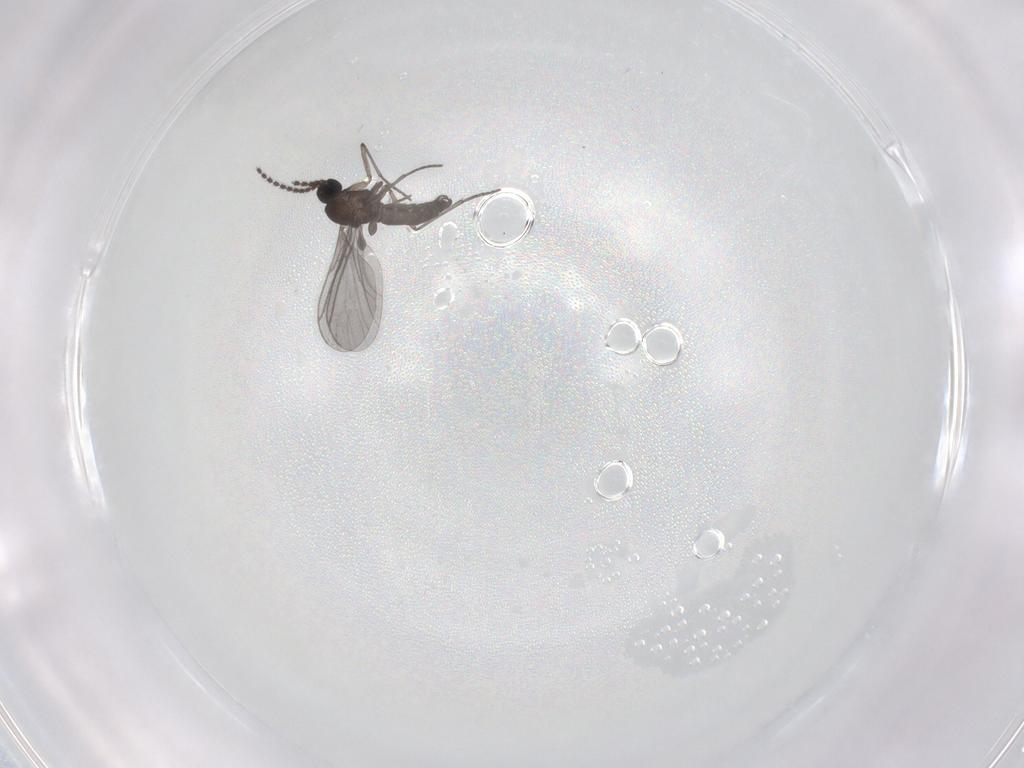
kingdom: Animalia
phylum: Arthropoda
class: Insecta
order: Diptera
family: Sciaridae
